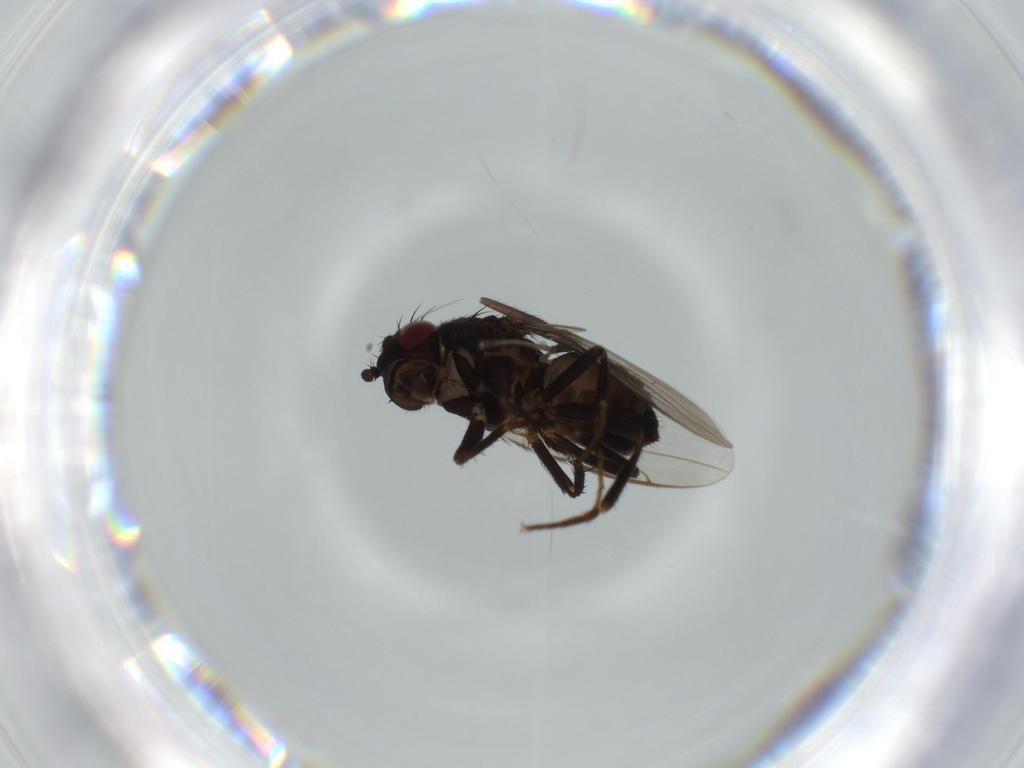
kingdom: Animalia
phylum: Arthropoda
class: Insecta
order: Diptera
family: Sphaeroceridae
